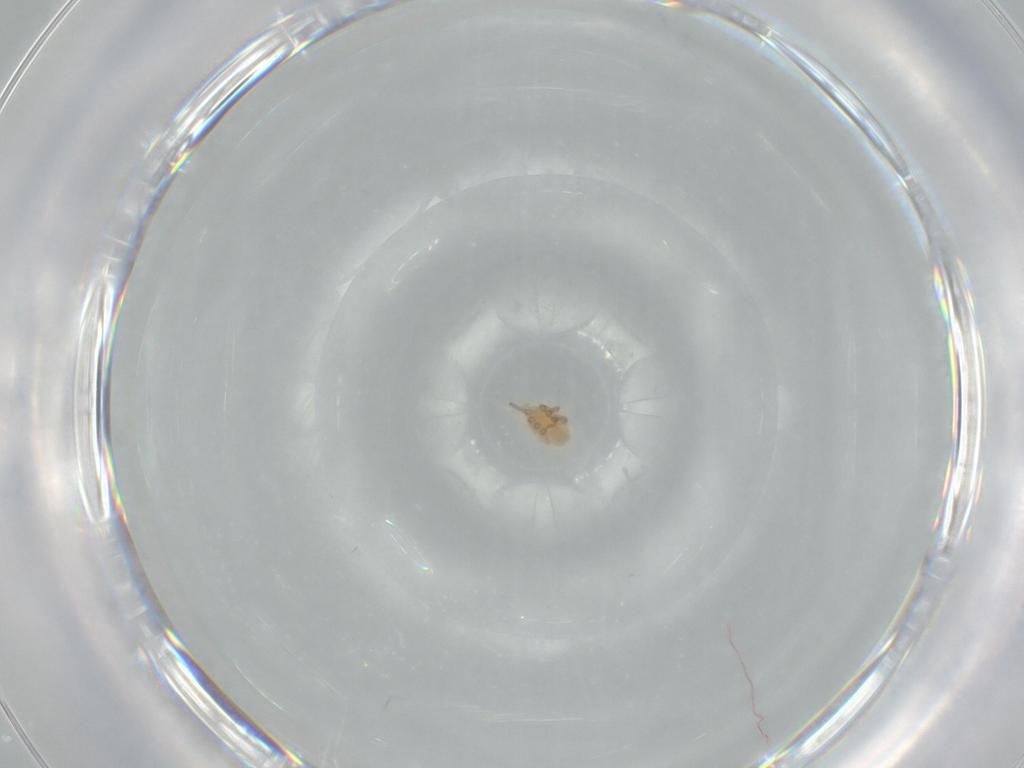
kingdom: Animalia
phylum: Arthropoda
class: Arachnida
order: Mesostigmata
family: Dinychidae
